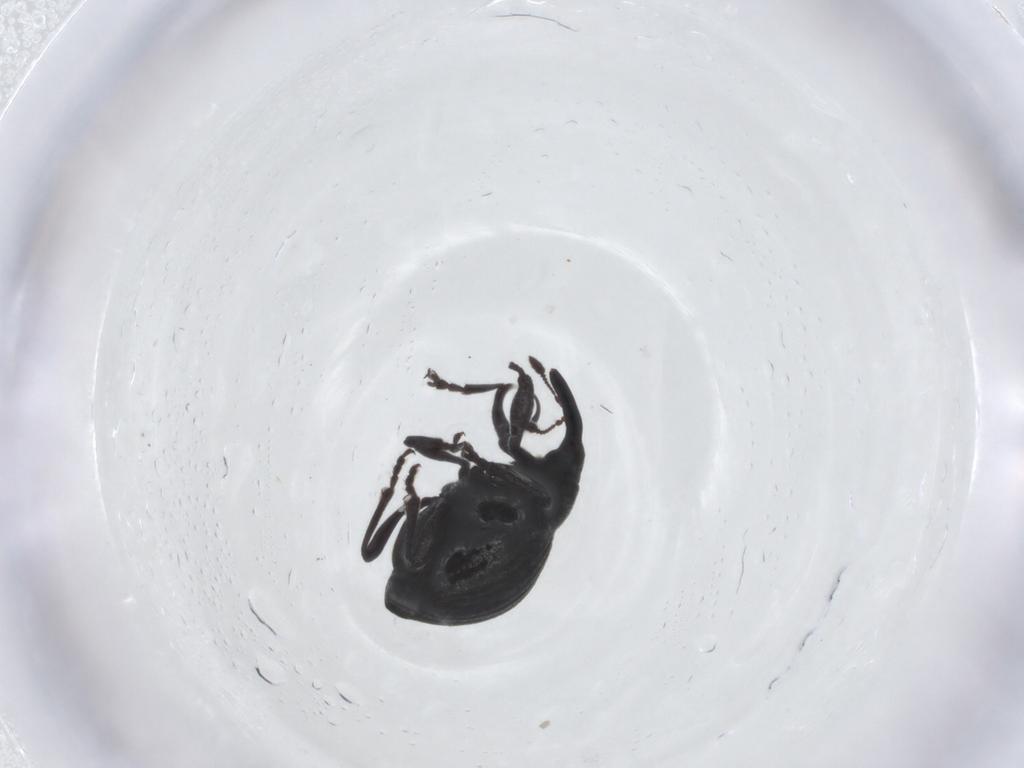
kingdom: Animalia
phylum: Arthropoda
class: Insecta
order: Coleoptera
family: Brentidae
